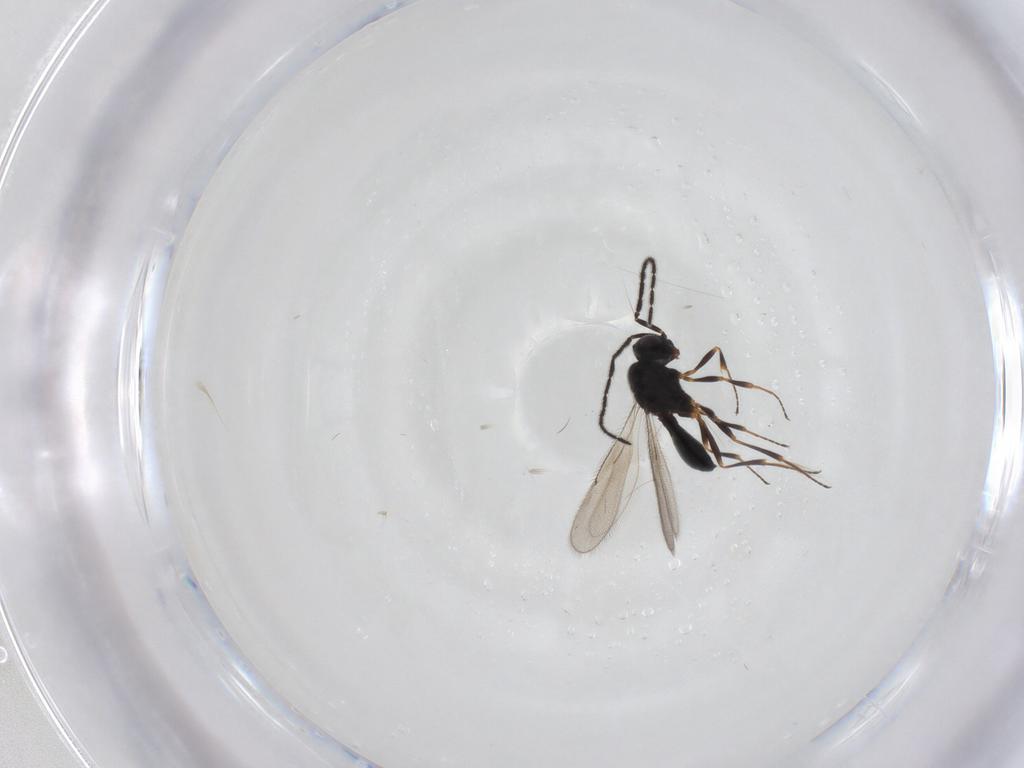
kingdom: Animalia
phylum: Arthropoda
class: Insecta
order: Hymenoptera
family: Scelionidae
